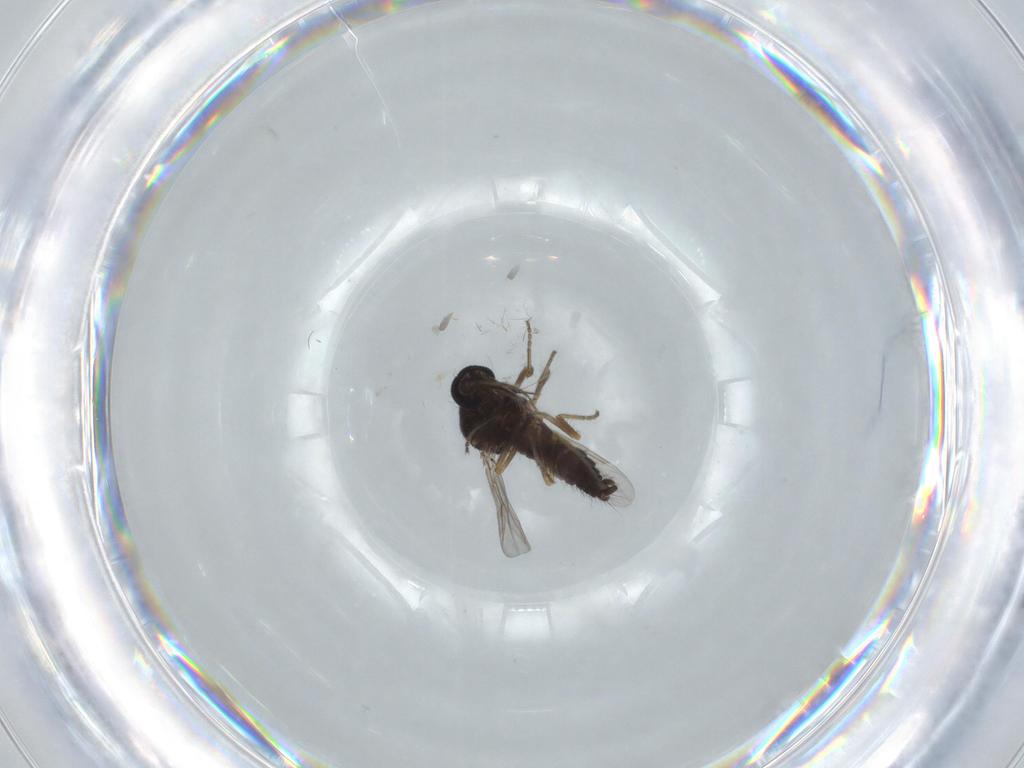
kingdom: Animalia
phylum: Arthropoda
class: Insecta
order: Diptera
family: Ceratopogonidae
